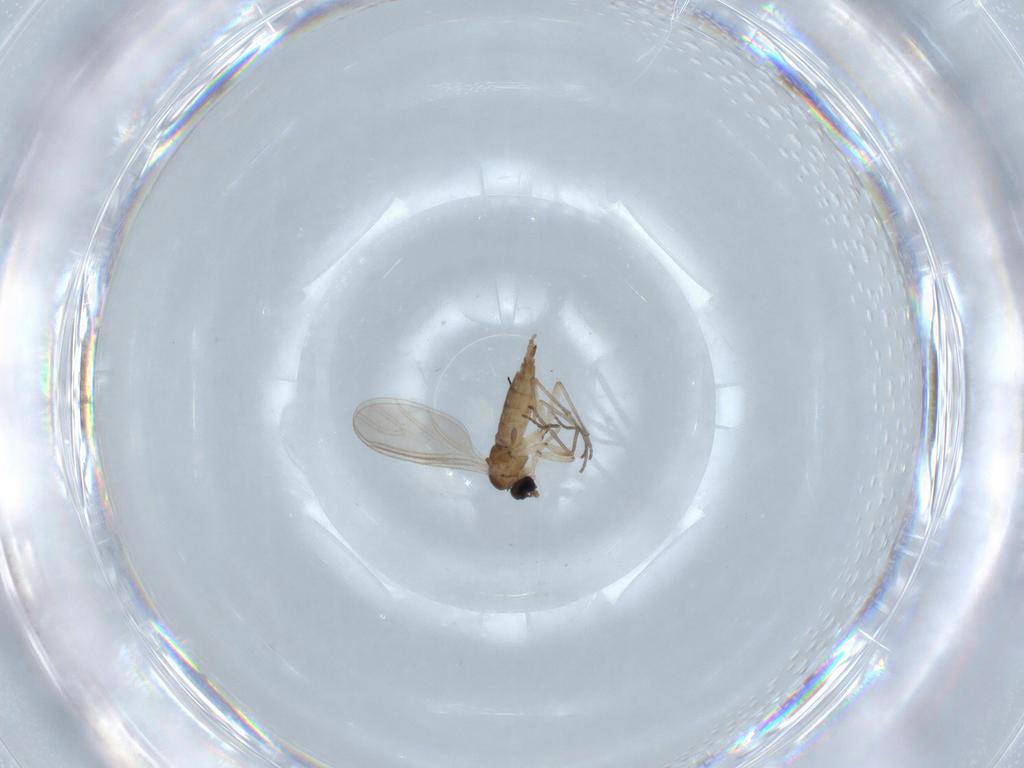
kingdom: Animalia
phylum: Arthropoda
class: Insecta
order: Diptera
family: Sciaridae
